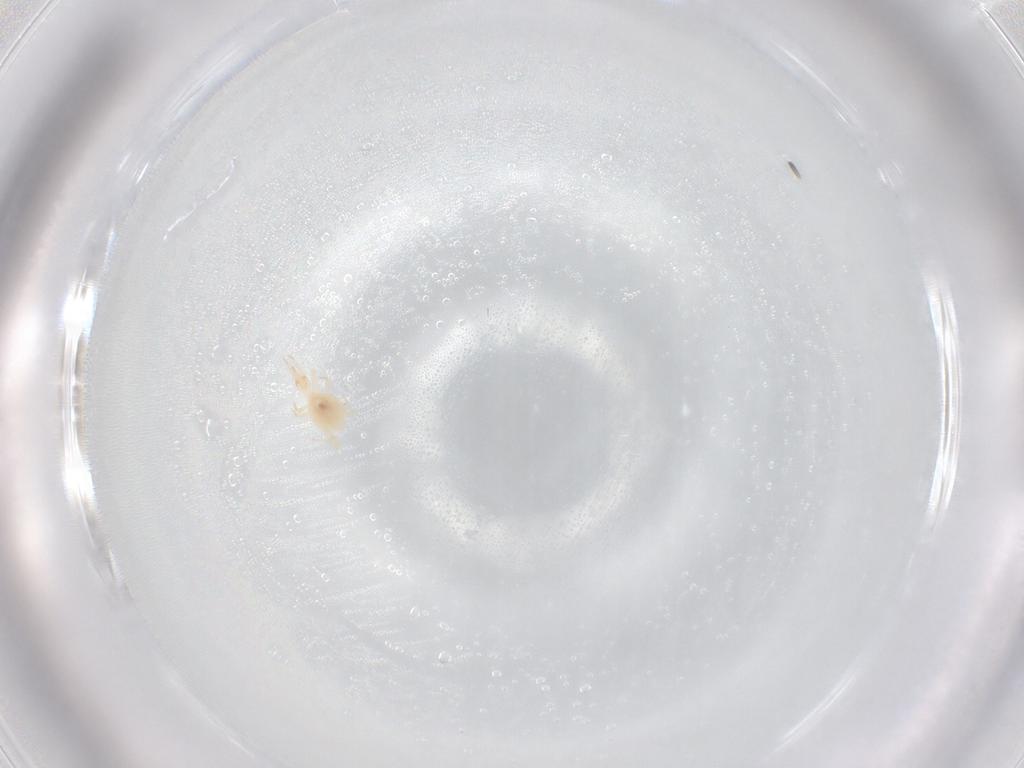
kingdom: Animalia
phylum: Arthropoda
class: Arachnida
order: Trombidiformes
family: Cunaxidae
